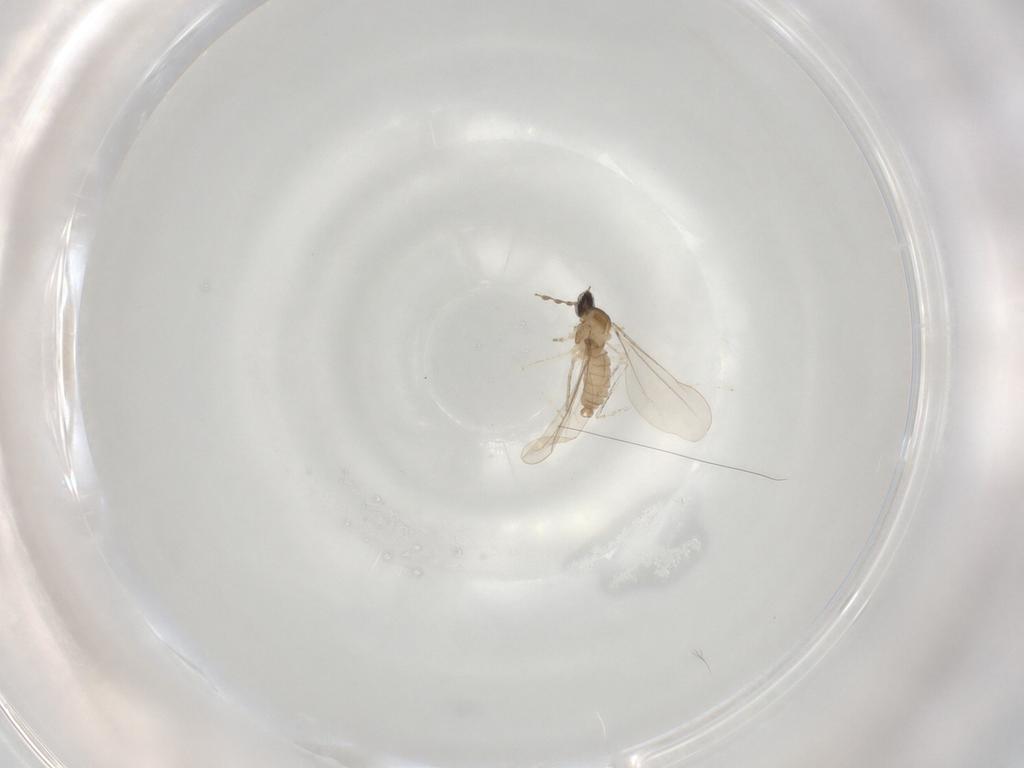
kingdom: Animalia
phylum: Arthropoda
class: Insecta
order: Diptera
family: Cecidomyiidae
